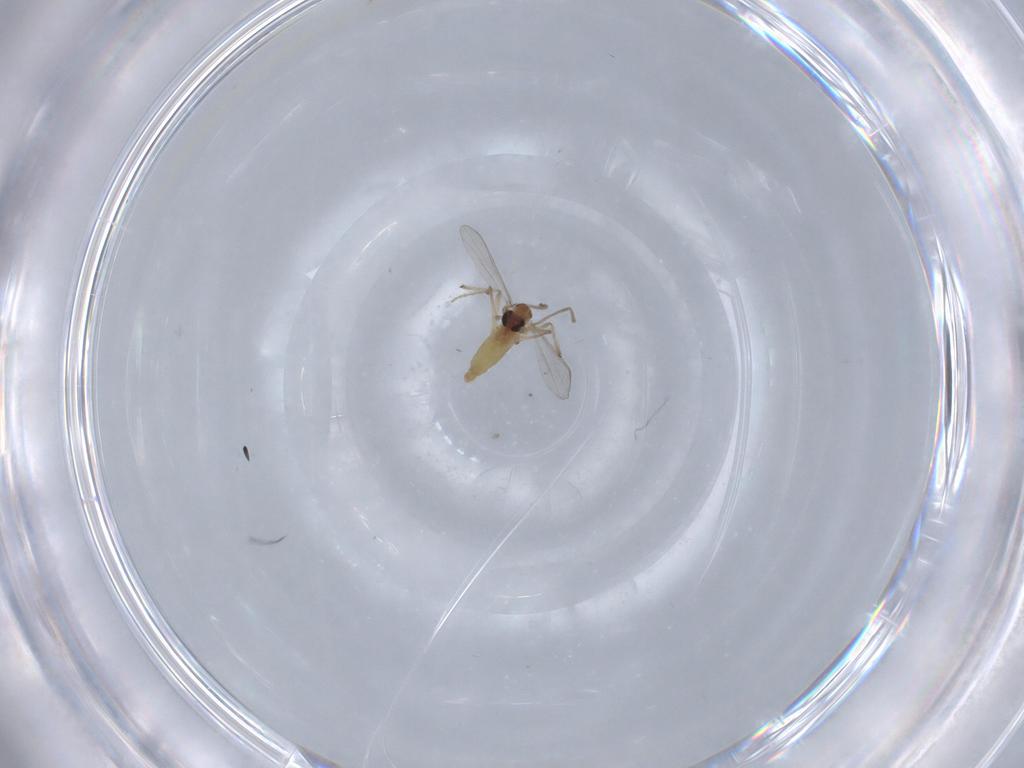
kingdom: Animalia
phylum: Arthropoda
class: Insecta
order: Diptera
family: Chironomidae
